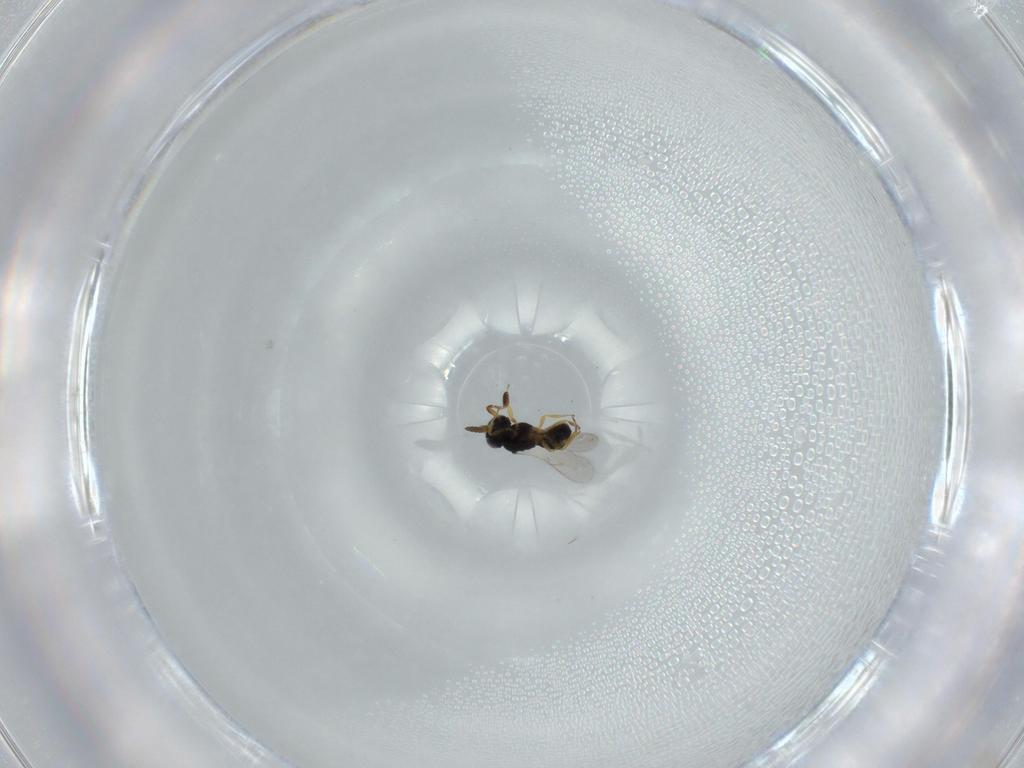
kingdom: Animalia
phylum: Arthropoda
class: Insecta
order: Hymenoptera
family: Scelionidae
